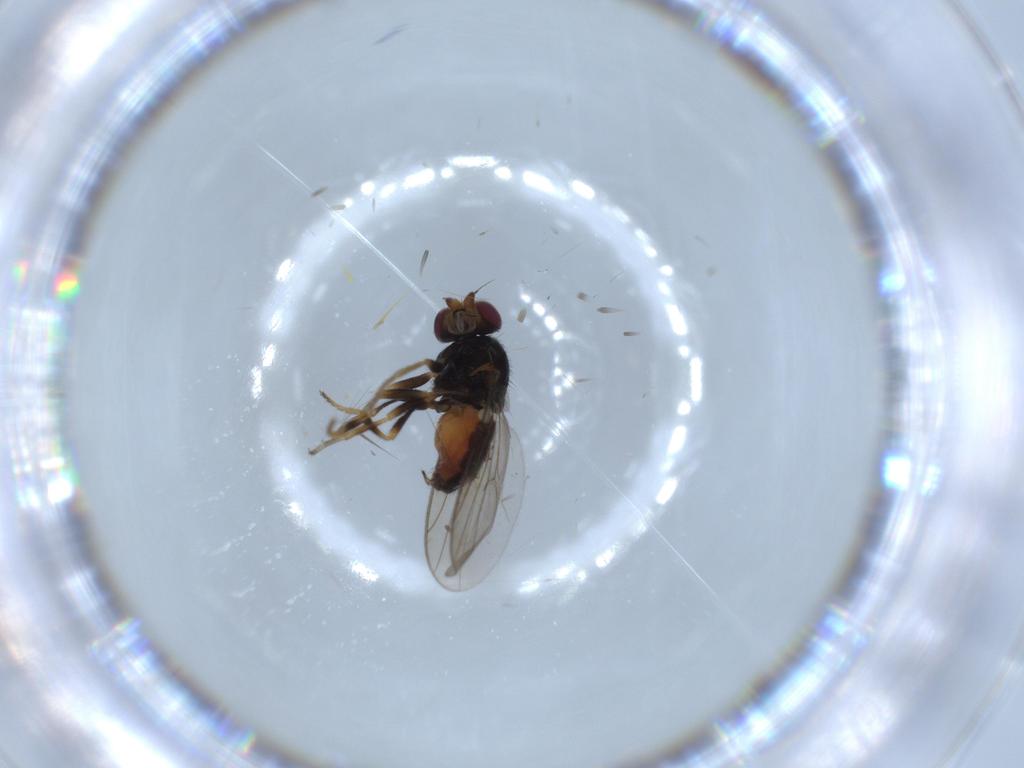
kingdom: Animalia
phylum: Arthropoda
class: Insecta
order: Diptera
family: Chloropidae
